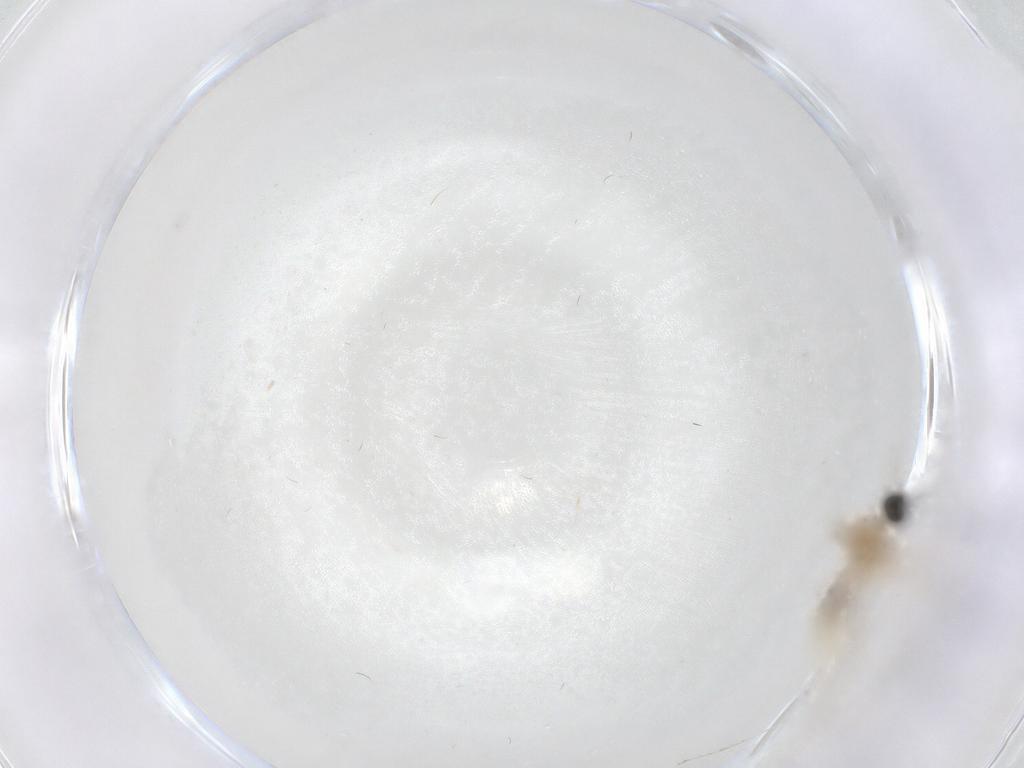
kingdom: Animalia
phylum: Arthropoda
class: Insecta
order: Diptera
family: Cecidomyiidae
